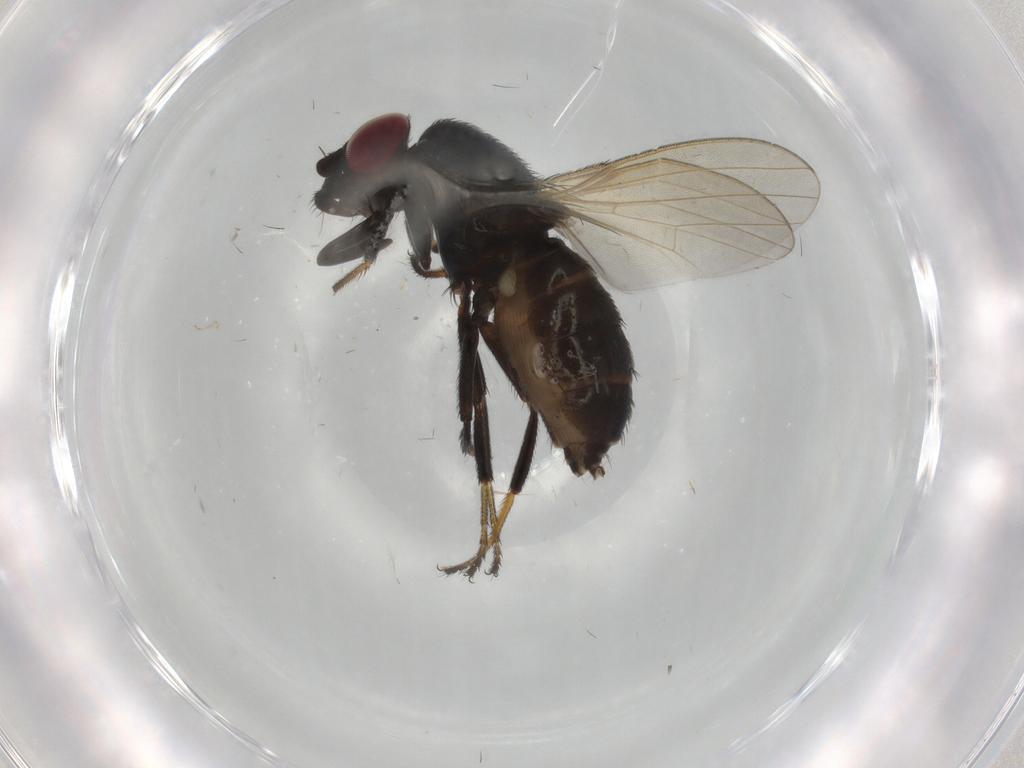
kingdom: Animalia
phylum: Arthropoda
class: Insecta
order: Diptera
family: Milichiidae
